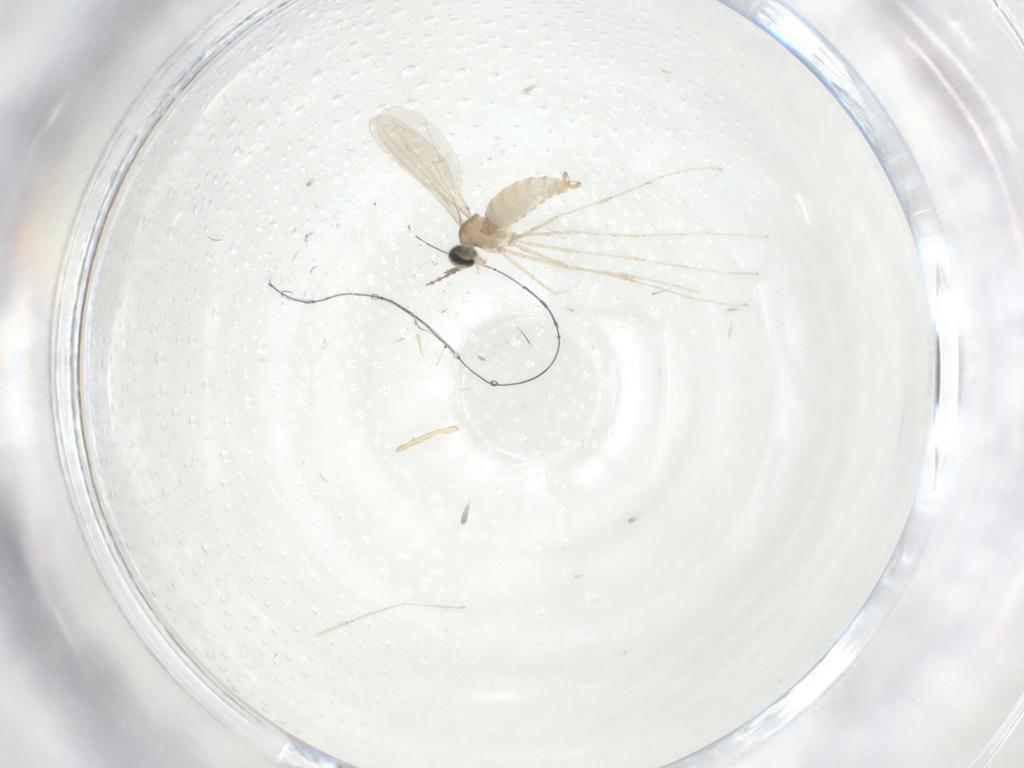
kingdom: Animalia
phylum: Arthropoda
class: Insecta
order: Diptera
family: Cecidomyiidae
